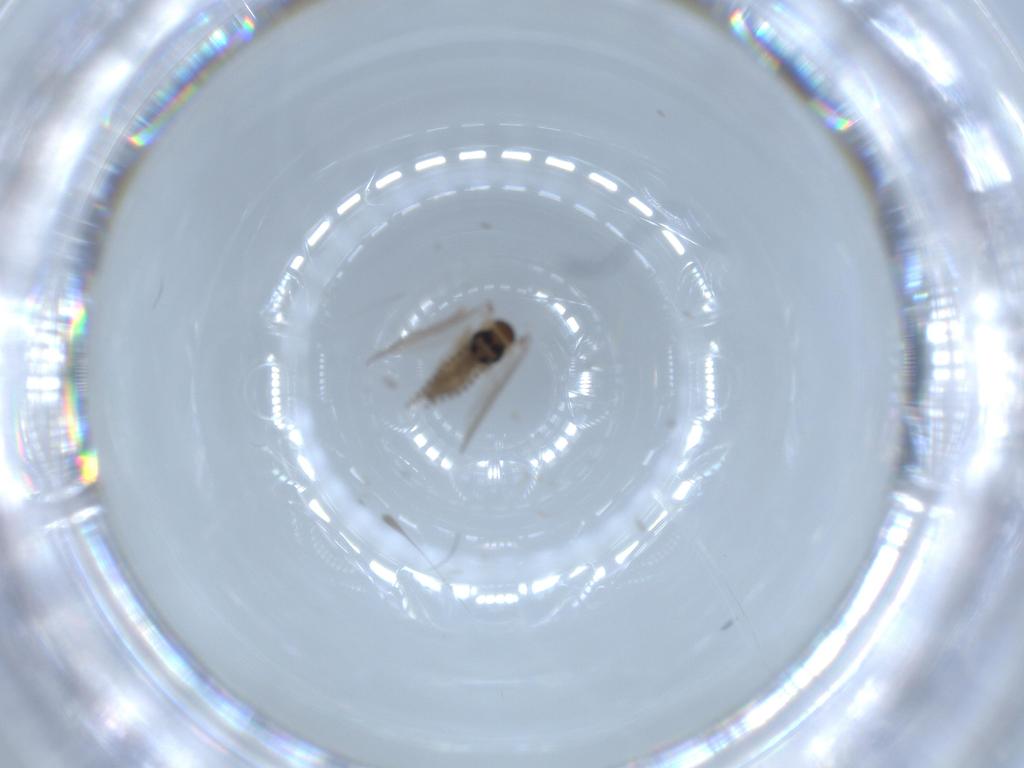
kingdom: Animalia
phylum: Arthropoda
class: Insecta
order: Diptera
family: Psychodidae
